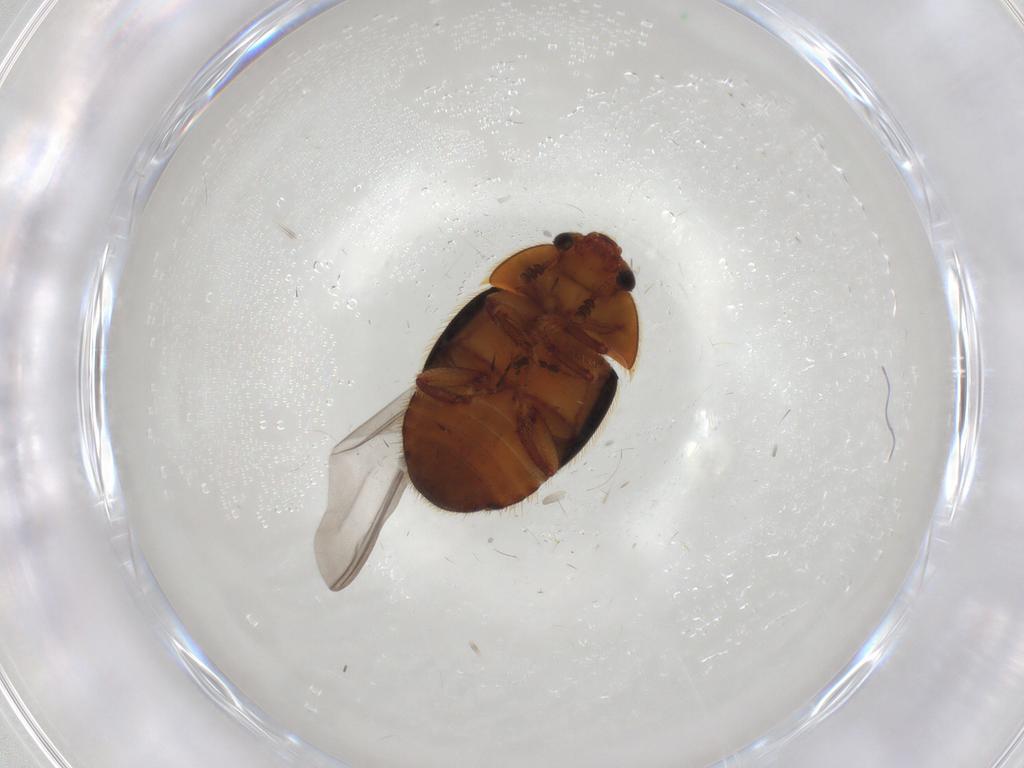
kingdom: Animalia
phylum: Arthropoda
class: Insecta
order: Coleoptera
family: Nitidulidae
